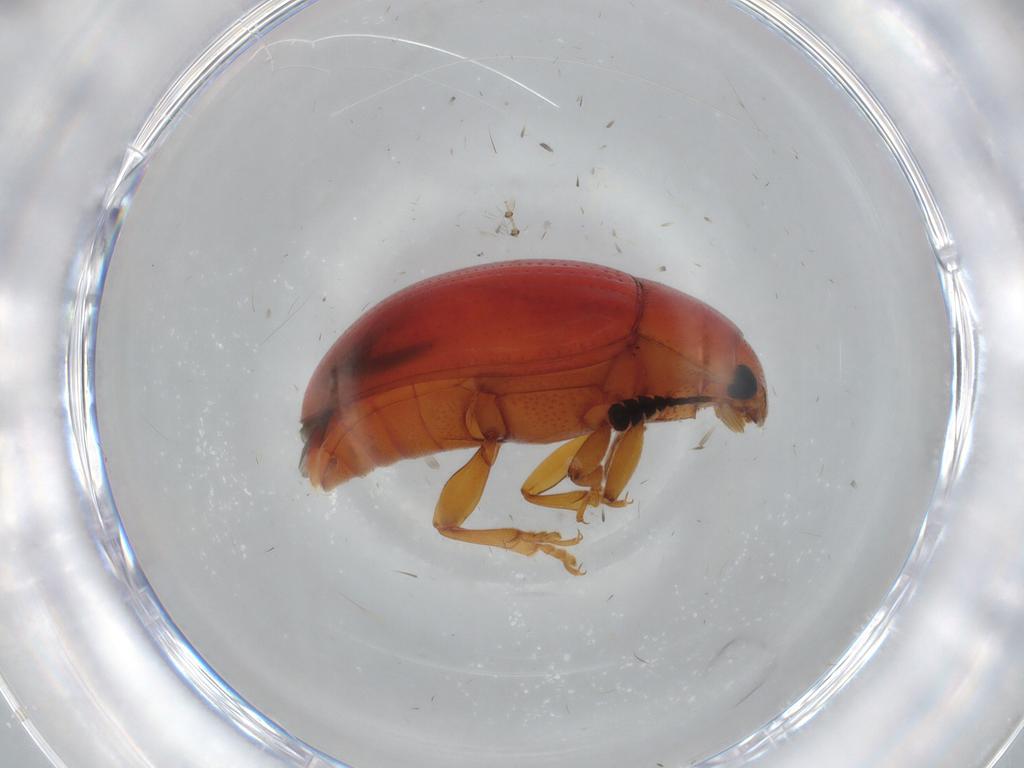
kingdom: Animalia
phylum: Arthropoda
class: Insecta
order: Coleoptera
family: Erotylidae
